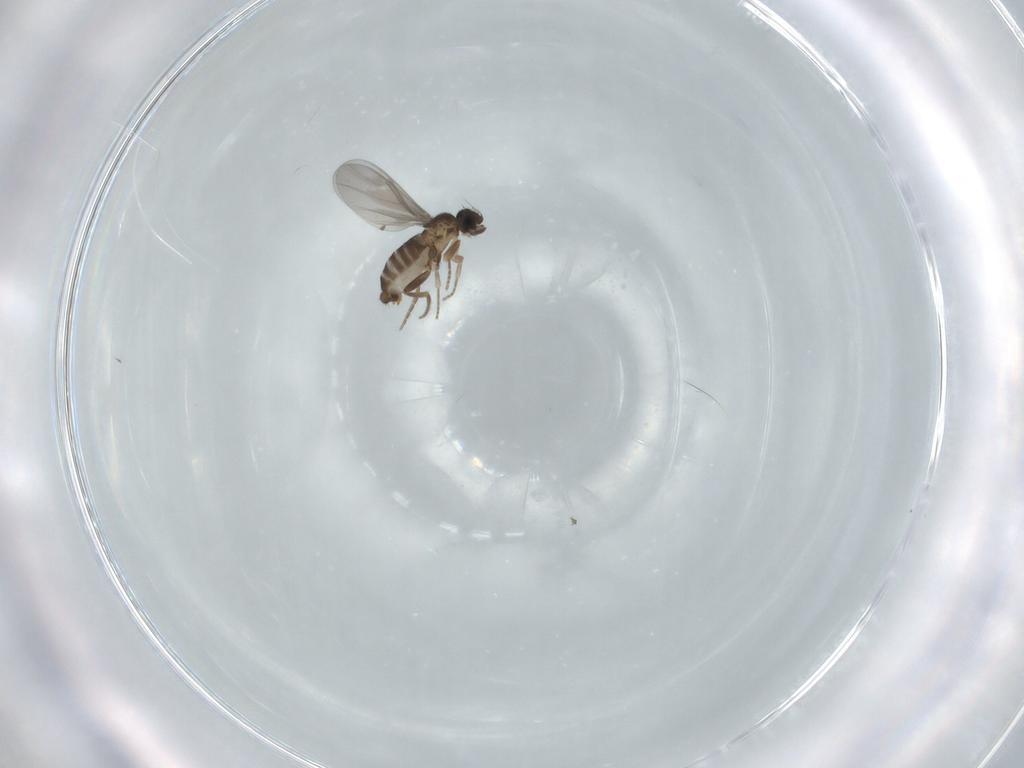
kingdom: Animalia
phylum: Arthropoda
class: Insecta
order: Diptera
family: Sciaridae
